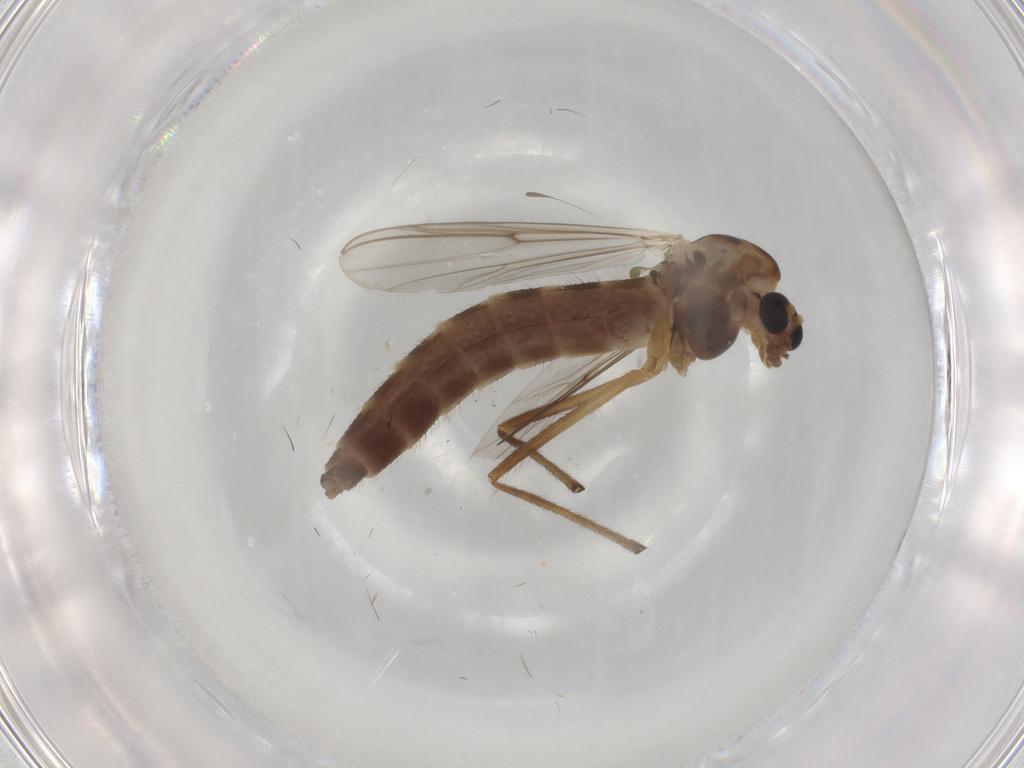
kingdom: Animalia
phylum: Arthropoda
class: Insecta
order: Diptera
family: Chironomidae
